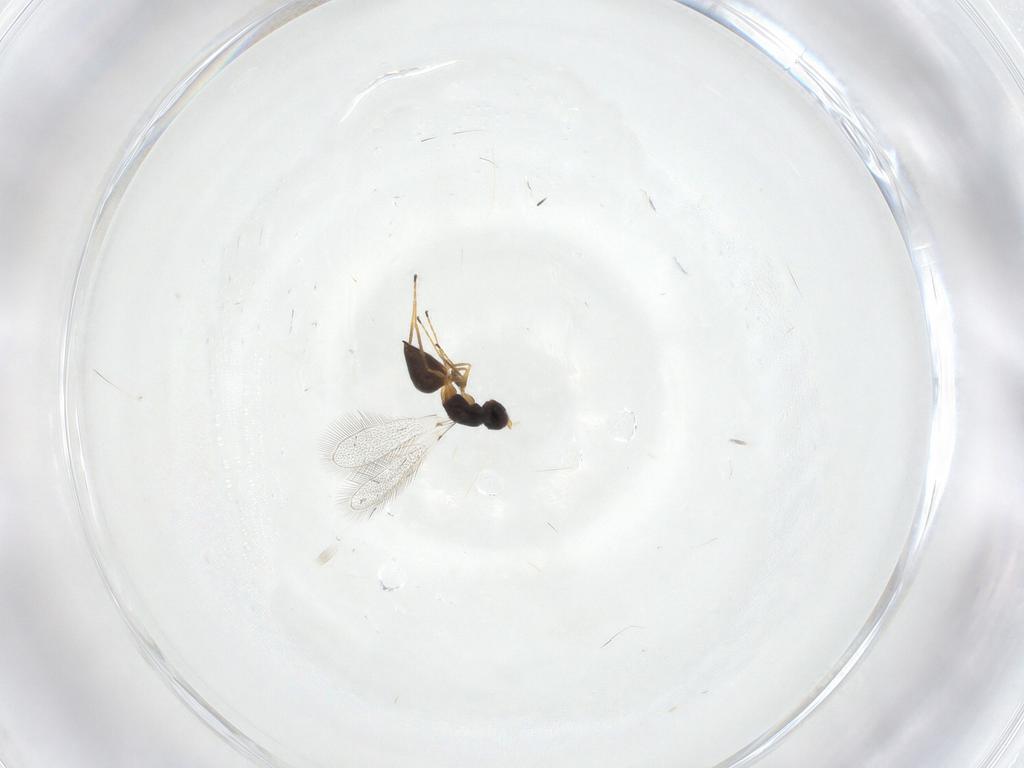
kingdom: Animalia
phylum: Arthropoda
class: Insecta
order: Hymenoptera
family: Mymaridae
